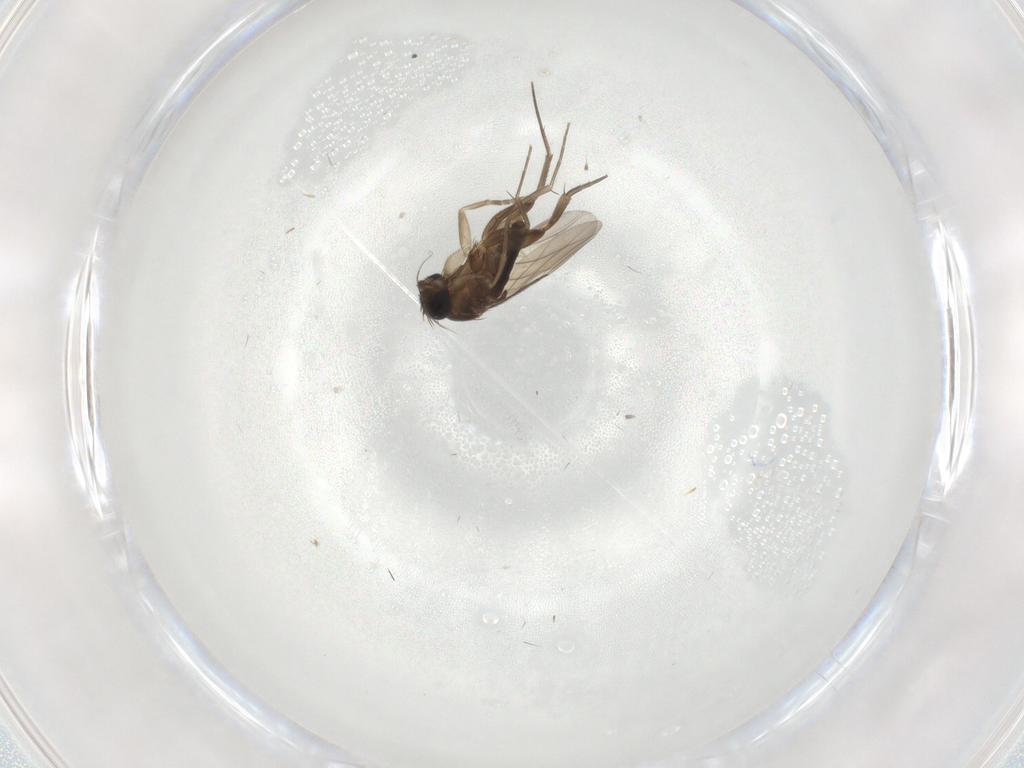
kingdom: Animalia
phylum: Arthropoda
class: Insecta
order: Diptera
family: Phoridae
